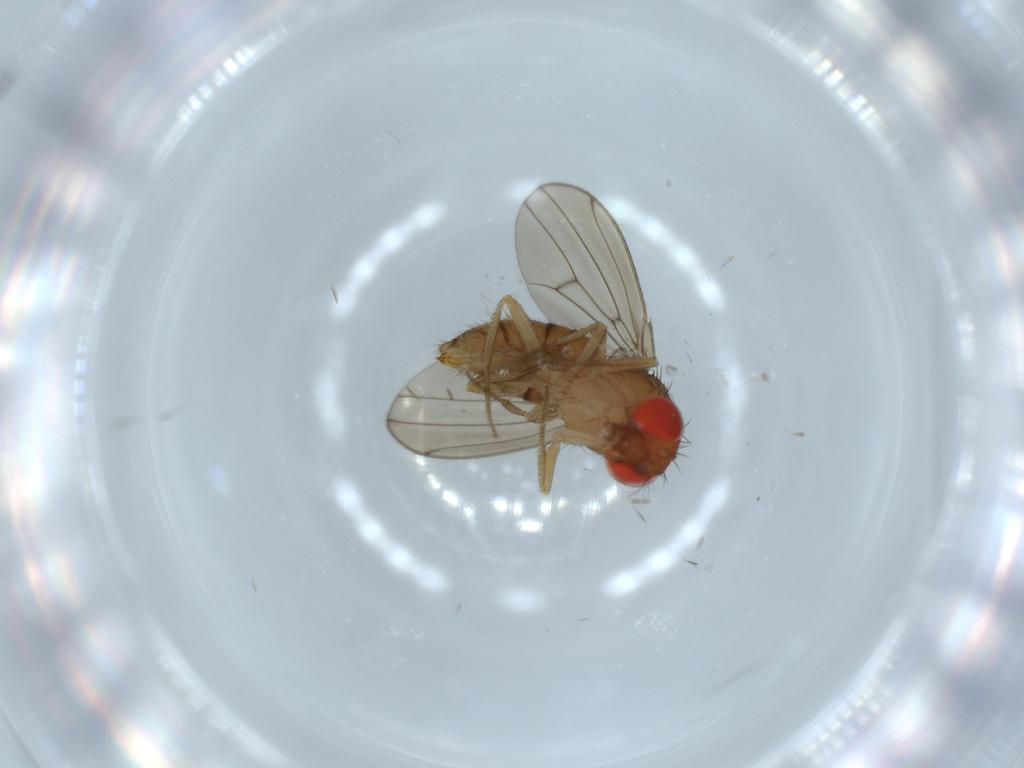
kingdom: Animalia
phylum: Arthropoda
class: Insecta
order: Diptera
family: Drosophilidae
